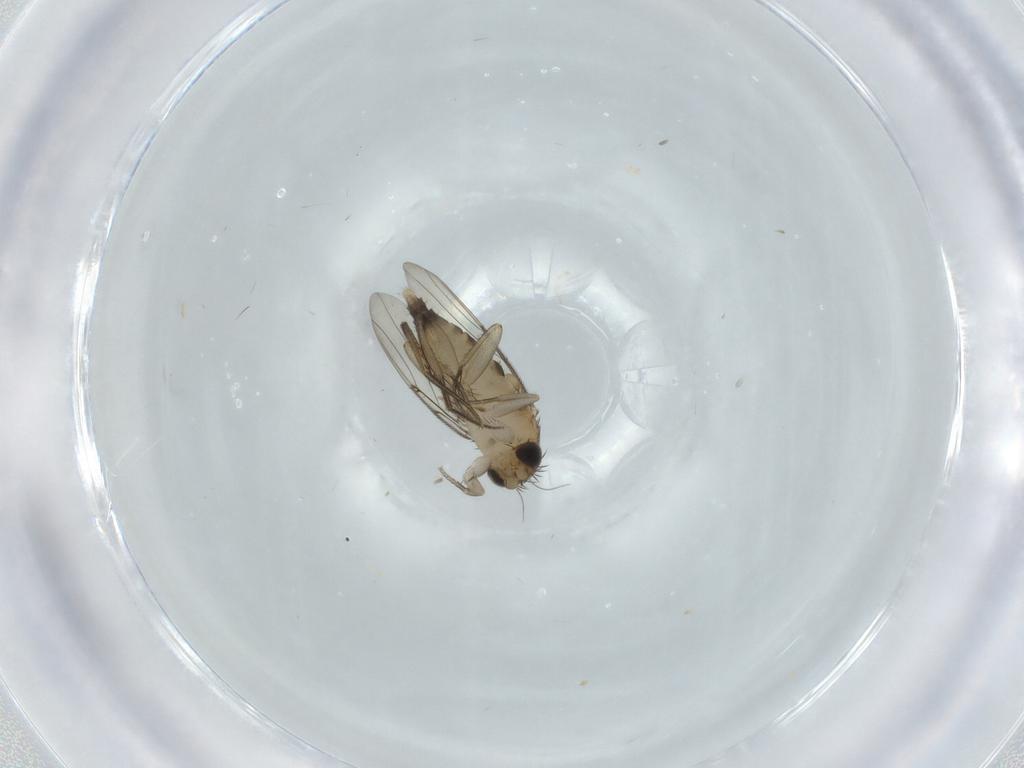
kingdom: Animalia
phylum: Arthropoda
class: Insecta
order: Diptera
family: Phoridae
